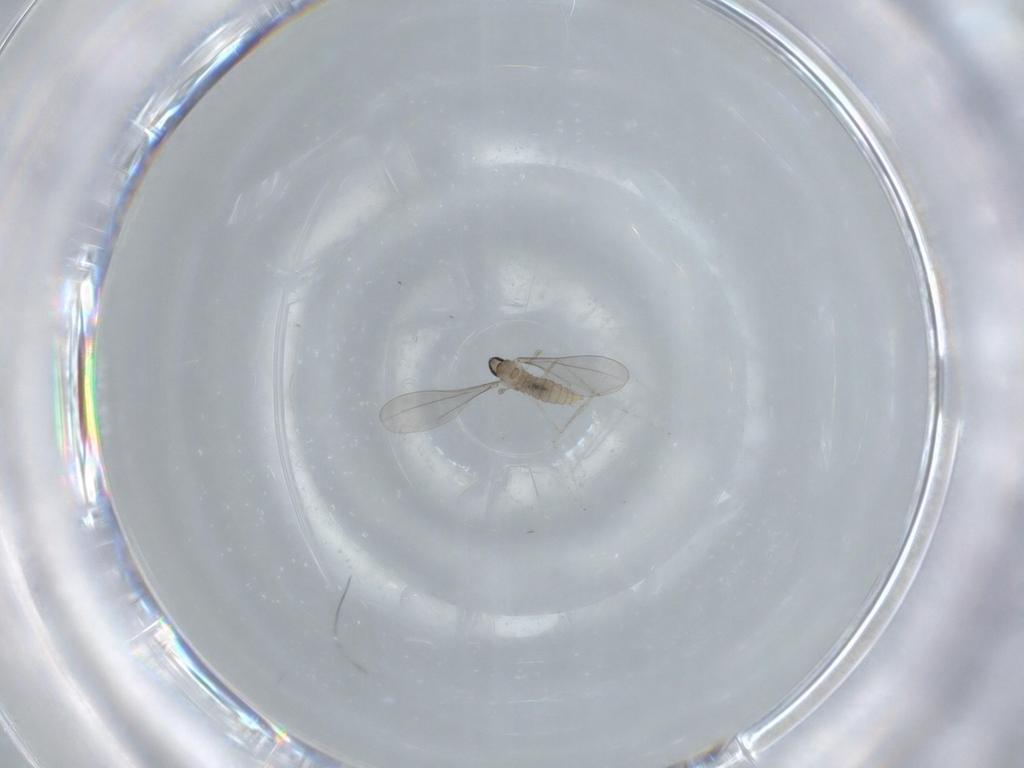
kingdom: Animalia
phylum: Arthropoda
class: Insecta
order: Diptera
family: Cecidomyiidae
